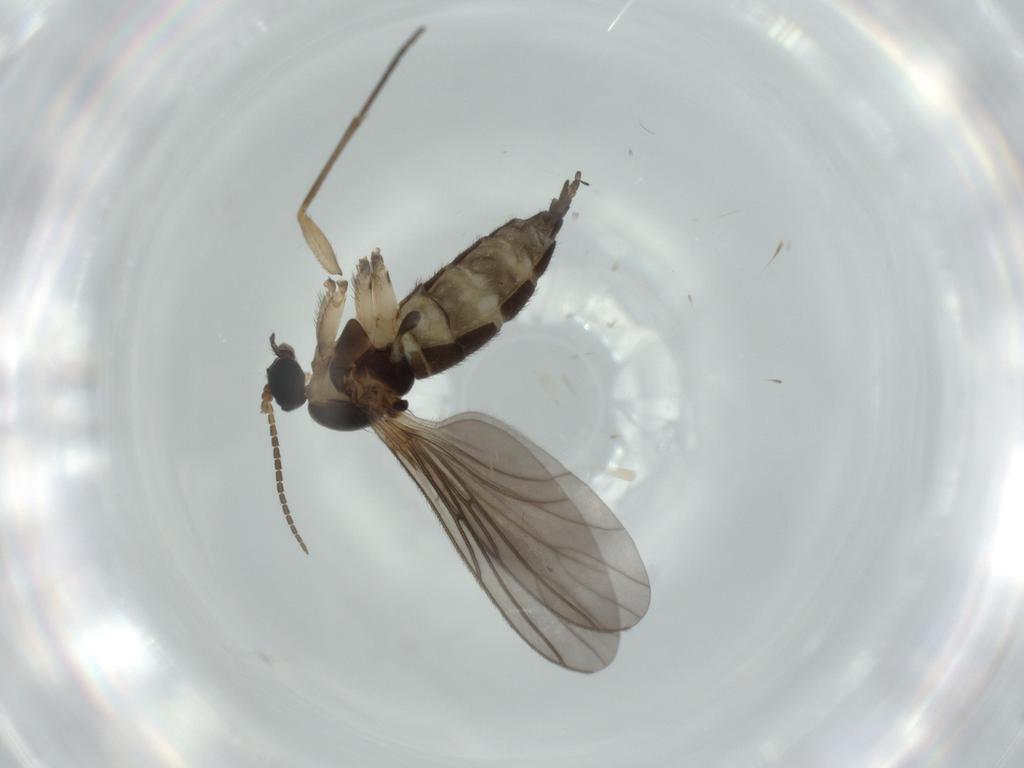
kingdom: Animalia
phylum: Arthropoda
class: Insecta
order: Diptera
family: Sciaridae
